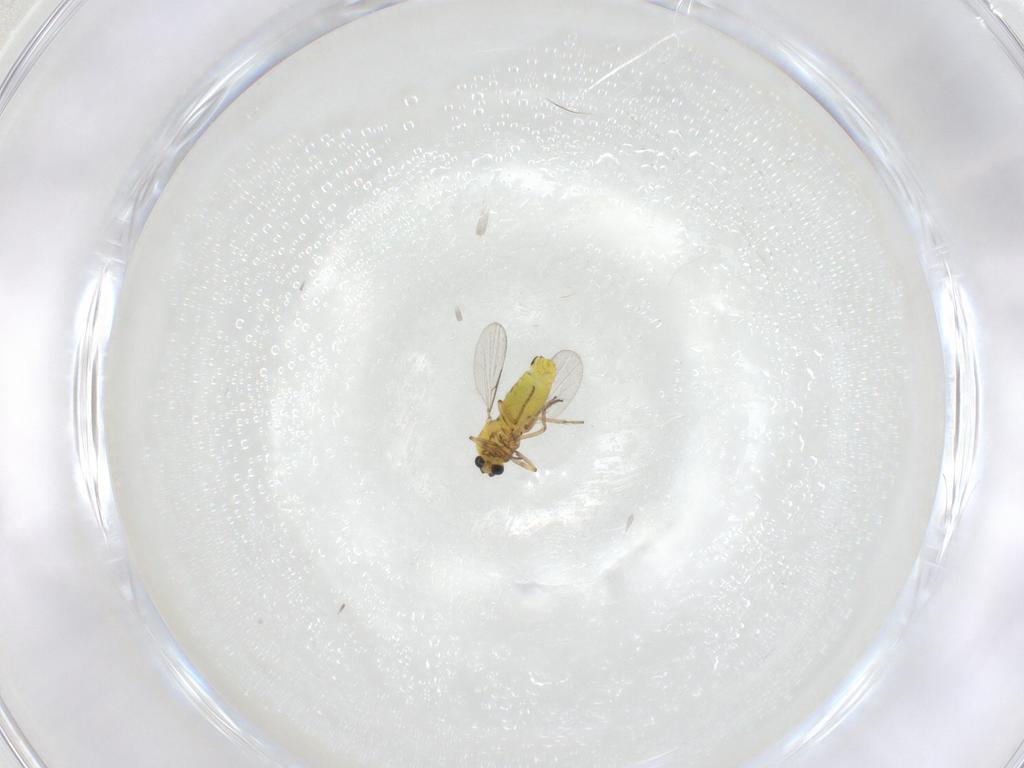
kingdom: Animalia
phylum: Arthropoda
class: Insecta
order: Diptera
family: Ceratopogonidae
